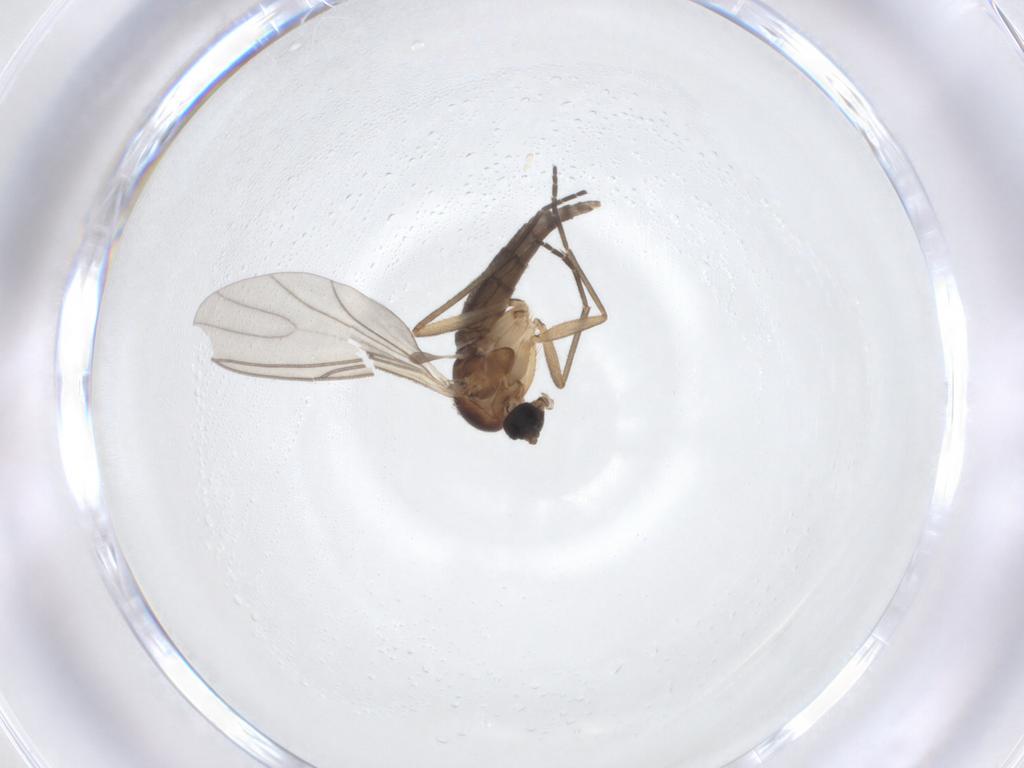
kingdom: Animalia
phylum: Arthropoda
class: Insecta
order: Diptera
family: Sciaridae
